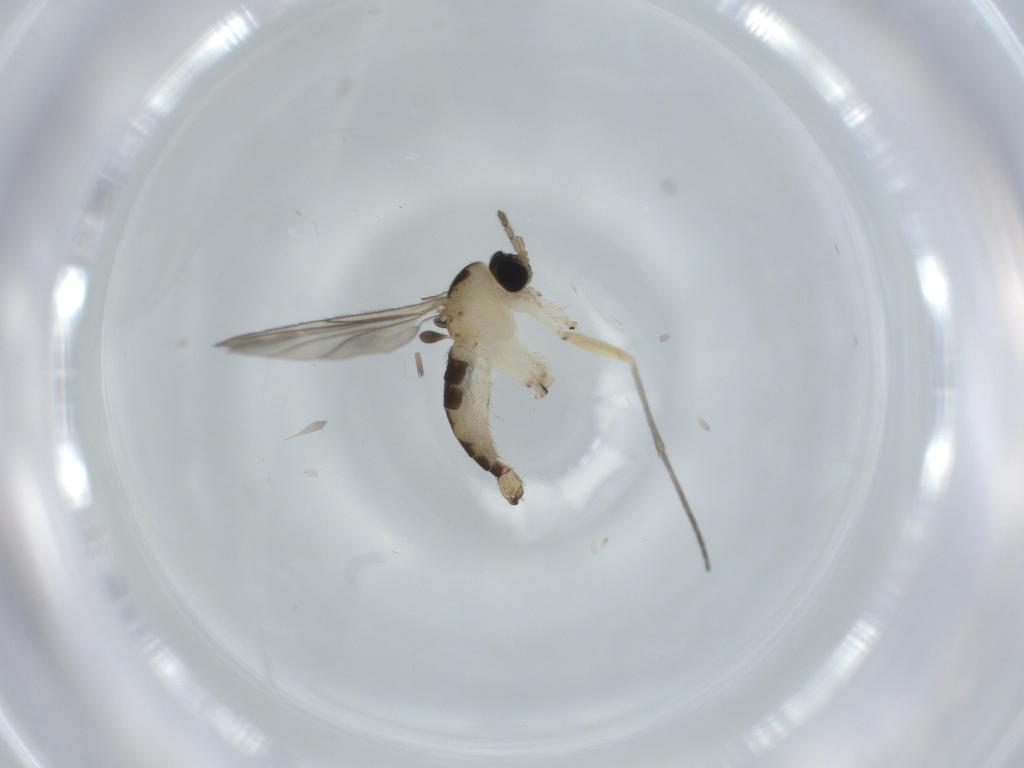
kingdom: Animalia
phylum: Arthropoda
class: Insecta
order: Diptera
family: Sciaridae
